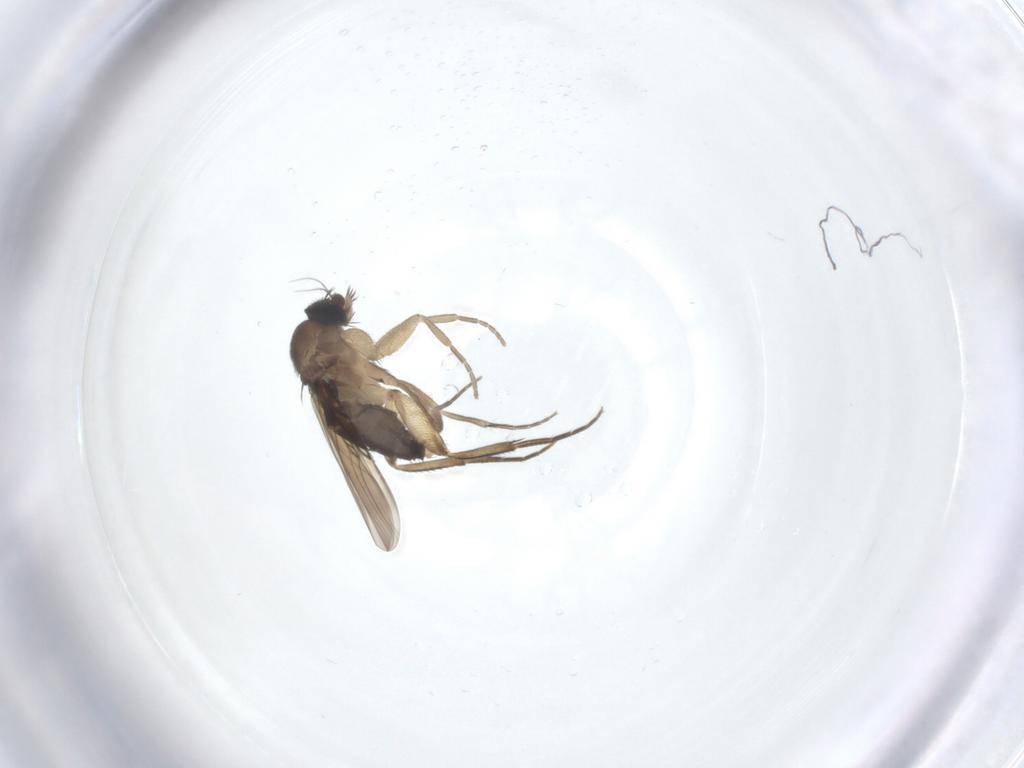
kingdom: Animalia
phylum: Arthropoda
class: Insecta
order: Diptera
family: Phoridae
